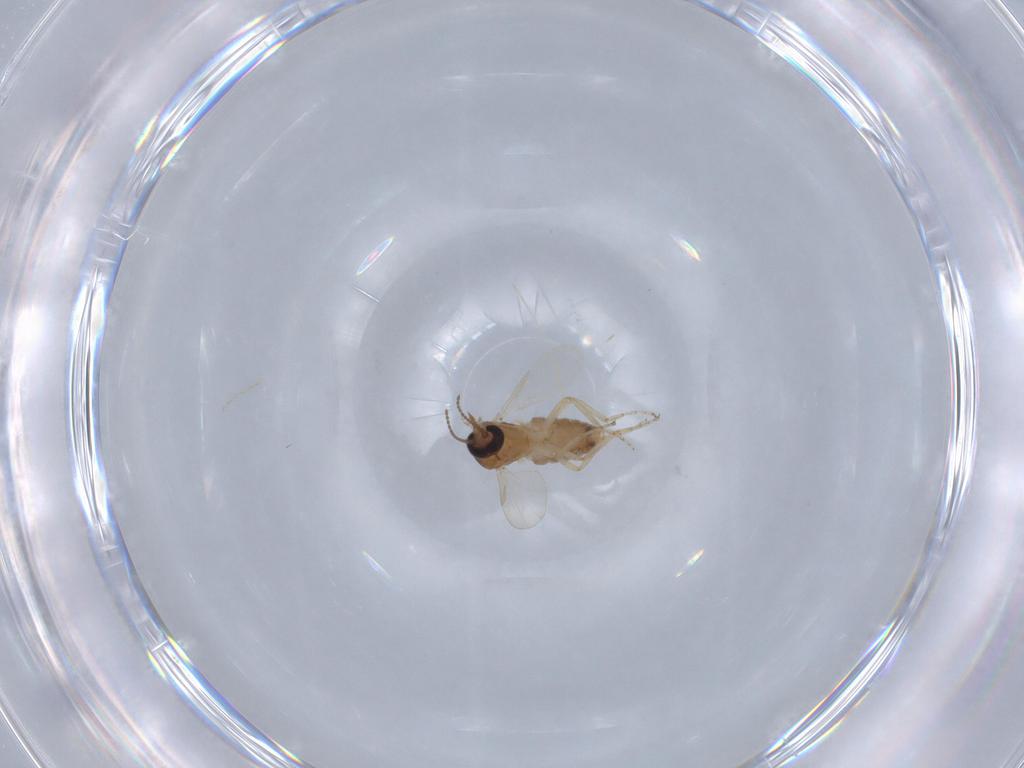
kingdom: Animalia
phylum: Arthropoda
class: Insecta
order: Diptera
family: Ceratopogonidae
